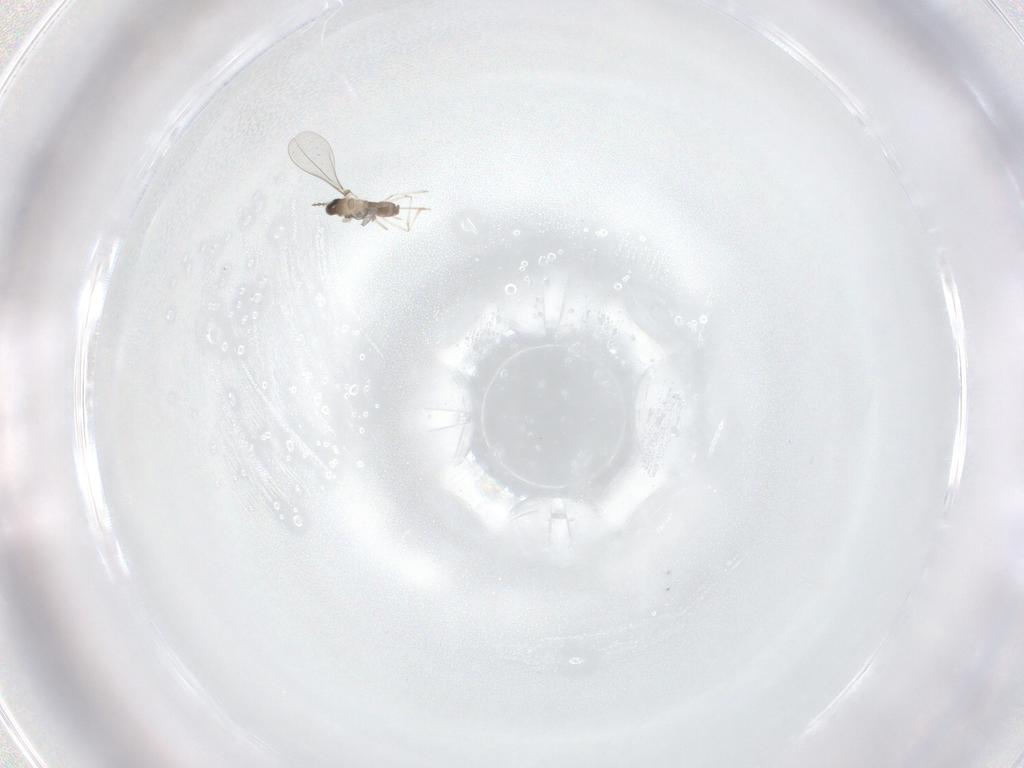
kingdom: Animalia
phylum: Arthropoda
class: Insecta
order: Diptera
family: Cecidomyiidae
